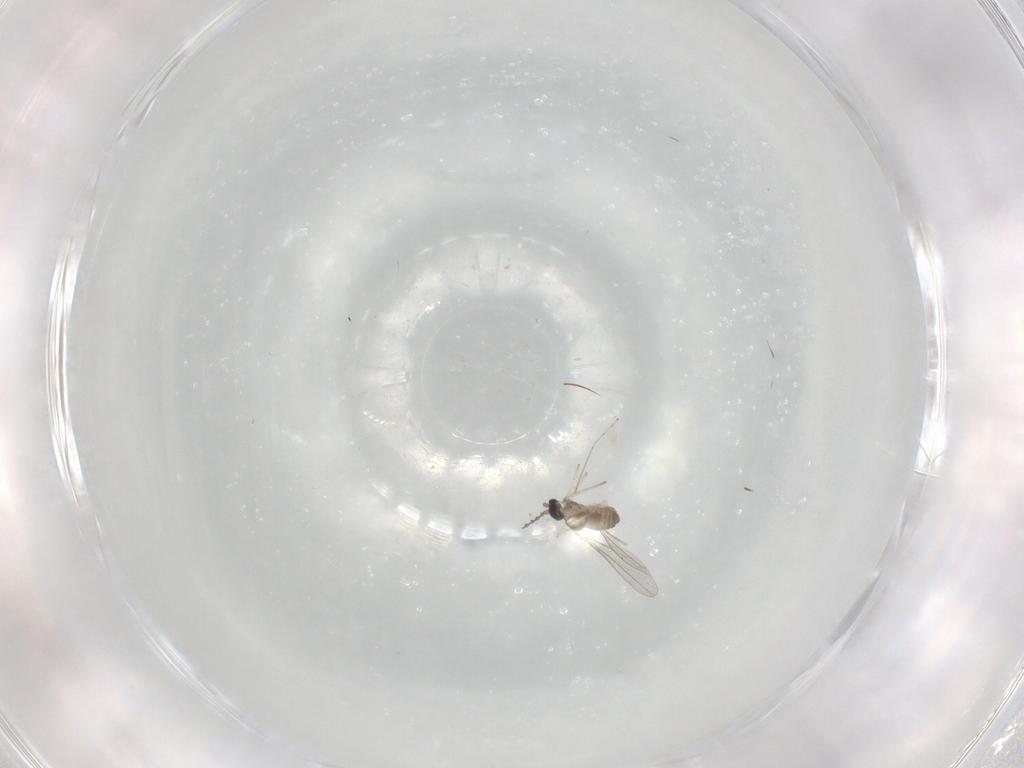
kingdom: Animalia
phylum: Arthropoda
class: Insecta
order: Diptera
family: Cecidomyiidae
